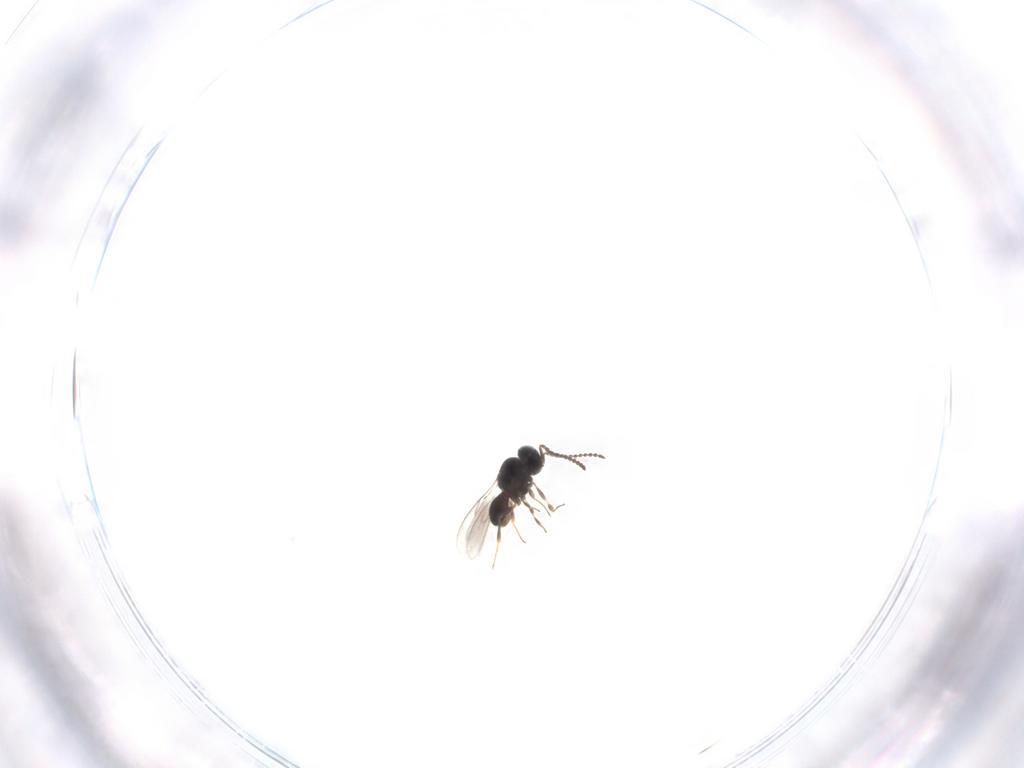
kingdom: Animalia
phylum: Arthropoda
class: Insecta
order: Hymenoptera
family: Scelionidae
